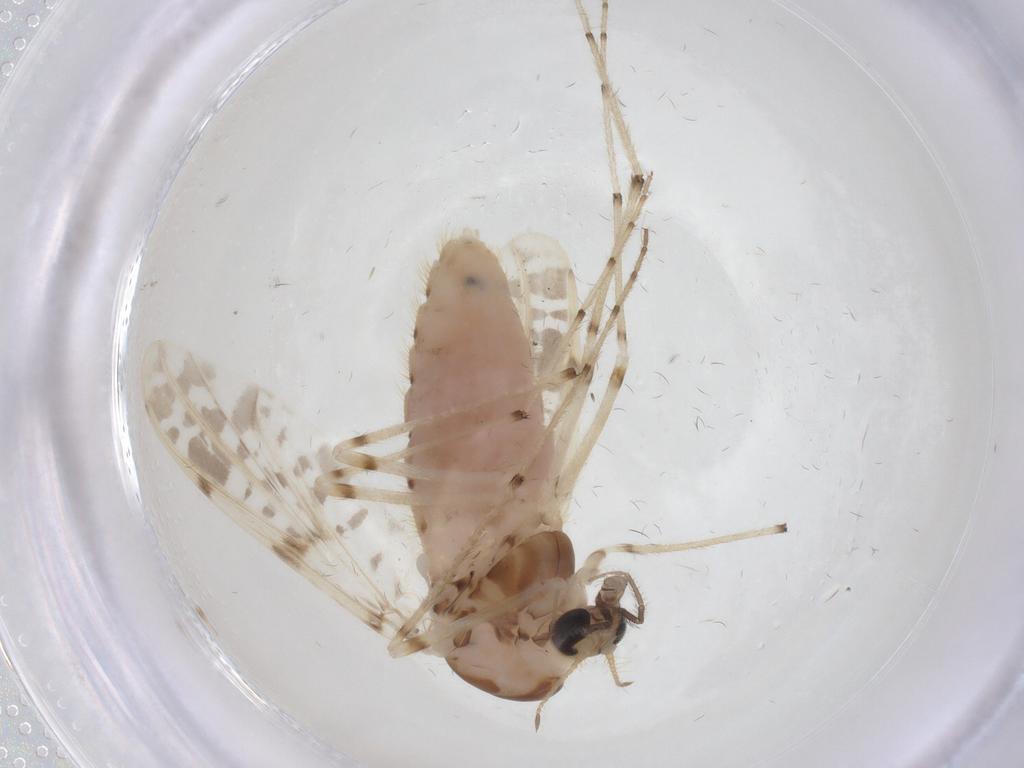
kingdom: Animalia
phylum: Arthropoda
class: Insecta
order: Diptera
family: Chironomidae
